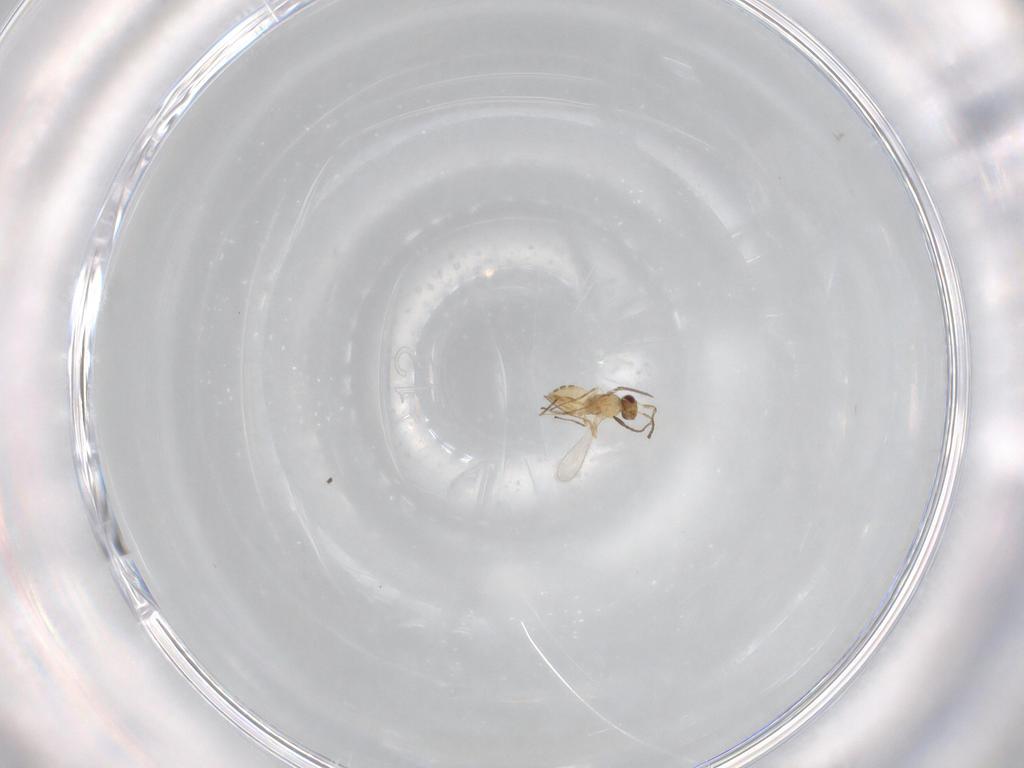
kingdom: Animalia
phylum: Arthropoda
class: Insecta
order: Hymenoptera
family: Mymaridae
